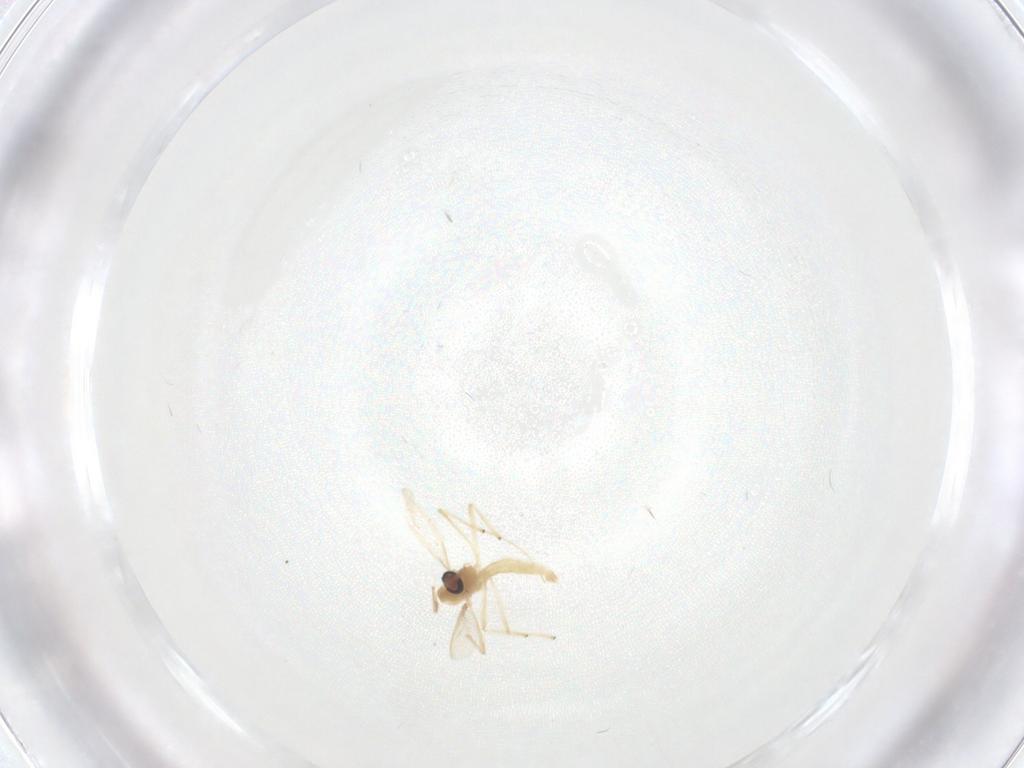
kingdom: Animalia
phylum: Arthropoda
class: Insecta
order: Diptera
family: Chironomidae
